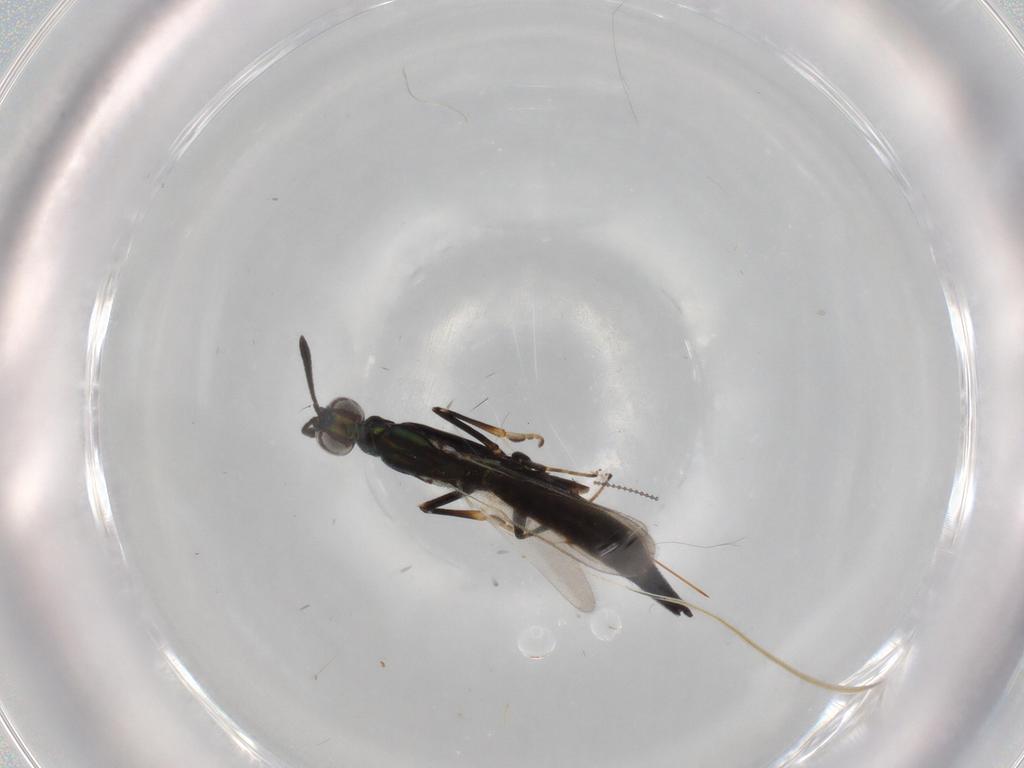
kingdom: Animalia
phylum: Arthropoda
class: Insecta
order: Hymenoptera
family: Eupelmidae
